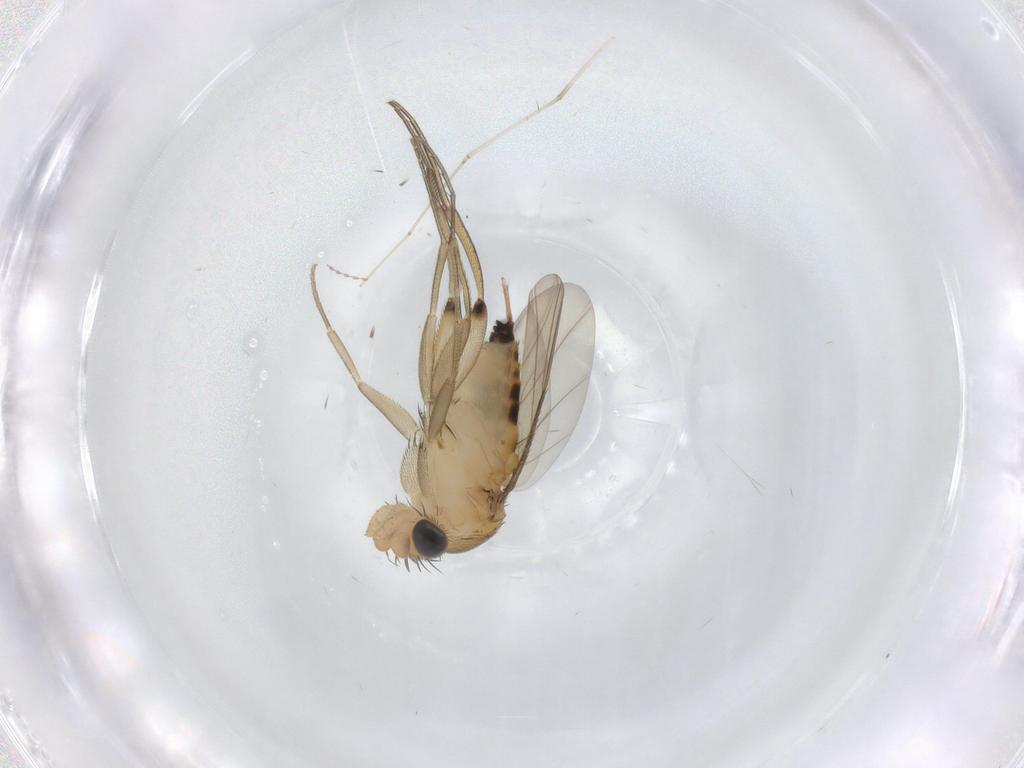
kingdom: Animalia
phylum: Arthropoda
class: Insecta
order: Diptera
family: Phoridae
